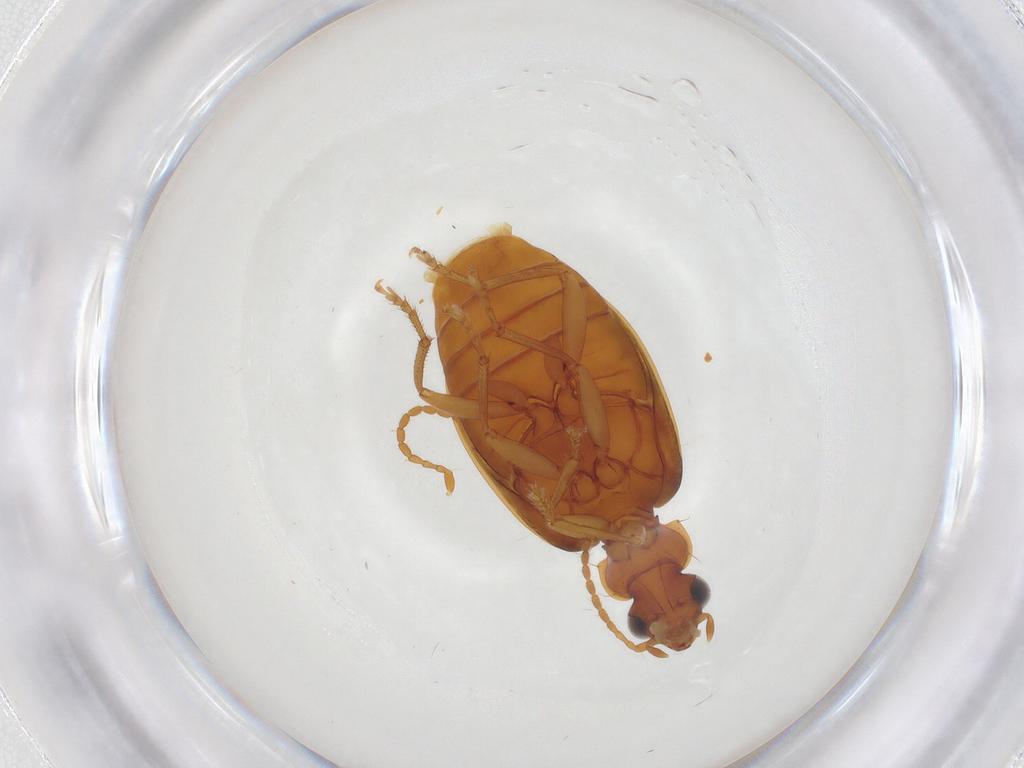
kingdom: Animalia
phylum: Arthropoda
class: Insecta
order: Coleoptera
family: Carabidae
